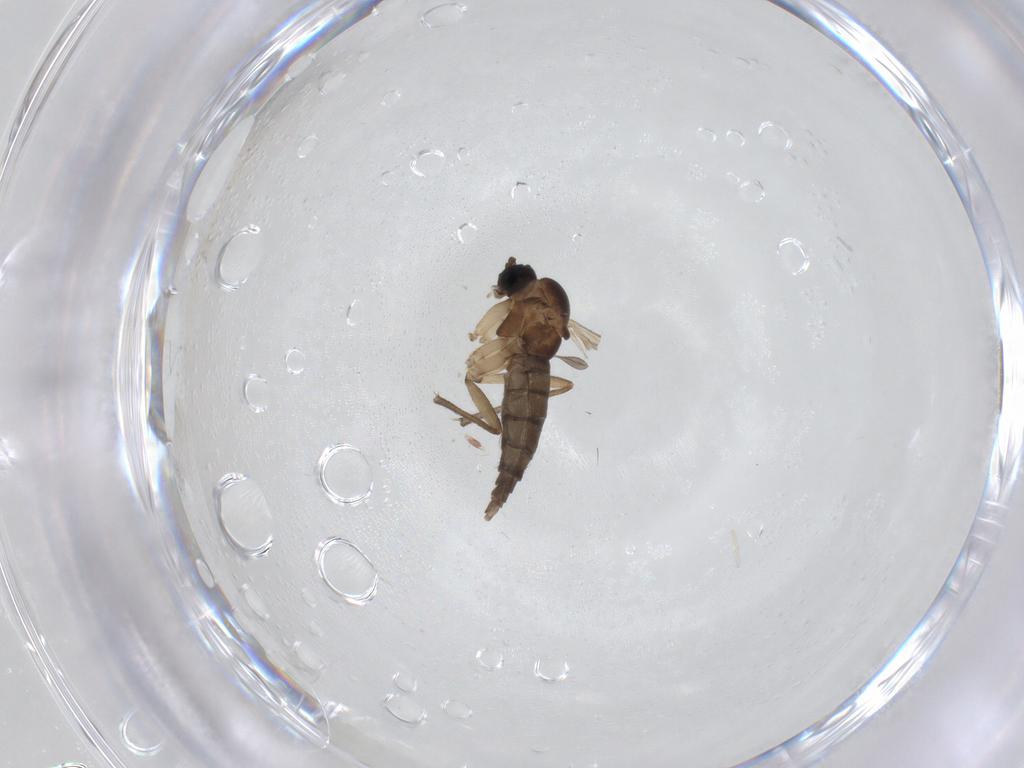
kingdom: Animalia
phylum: Arthropoda
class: Insecta
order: Diptera
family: Sciaridae
